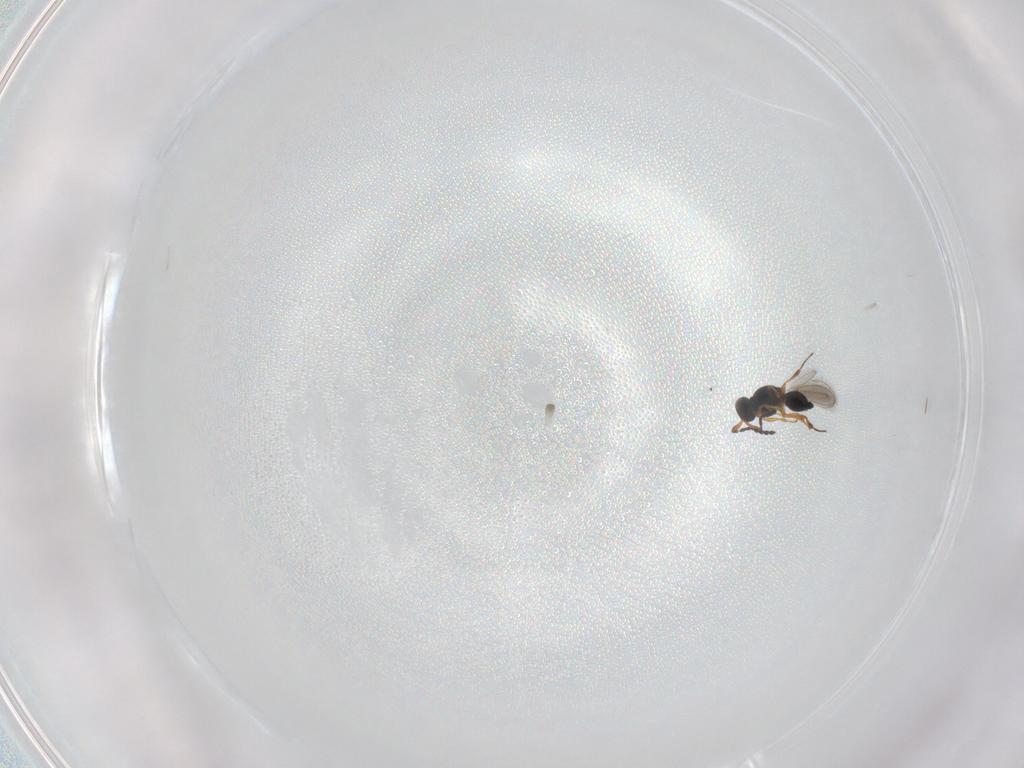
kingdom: Animalia
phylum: Arthropoda
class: Insecta
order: Hymenoptera
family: Platygastridae
